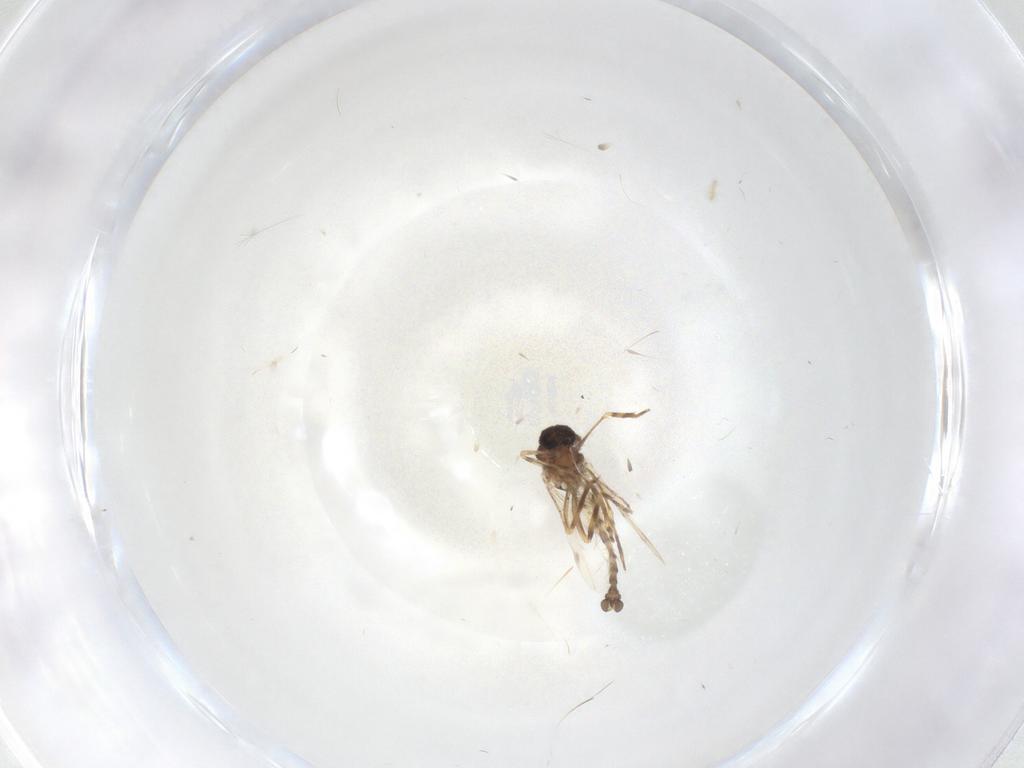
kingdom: Animalia
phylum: Arthropoda
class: Insecta
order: Diptera
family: Ceratopogonidae
